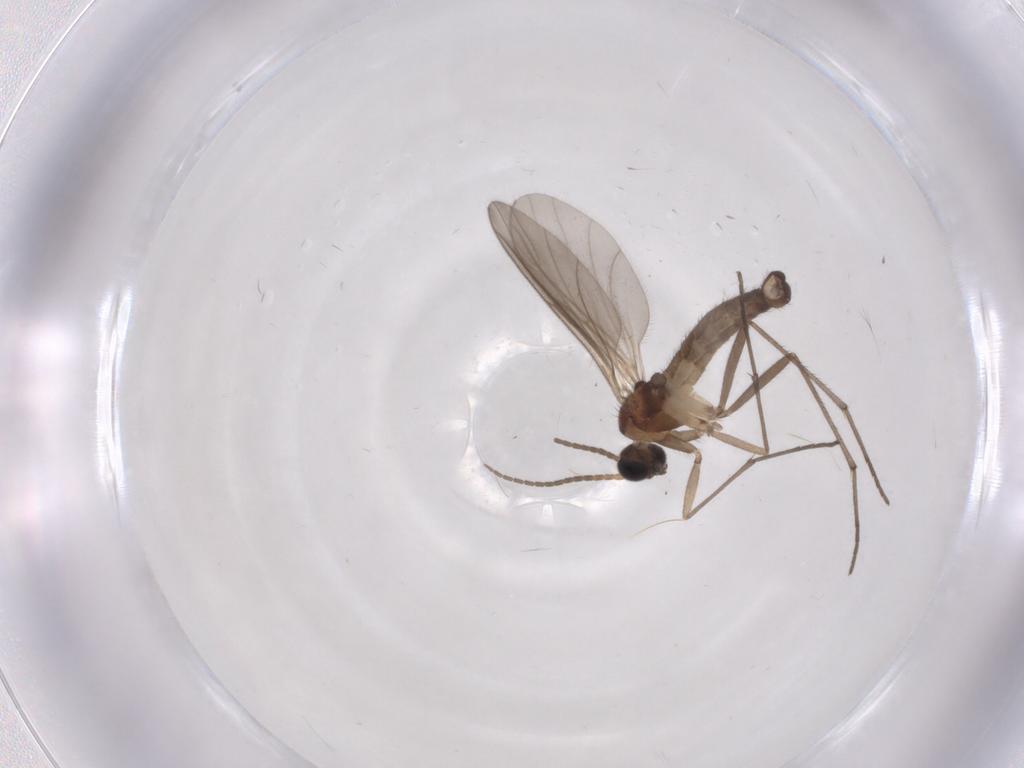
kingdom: Animalia
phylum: Arthropoda
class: Insecta
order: Diptera
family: Sciaridae
